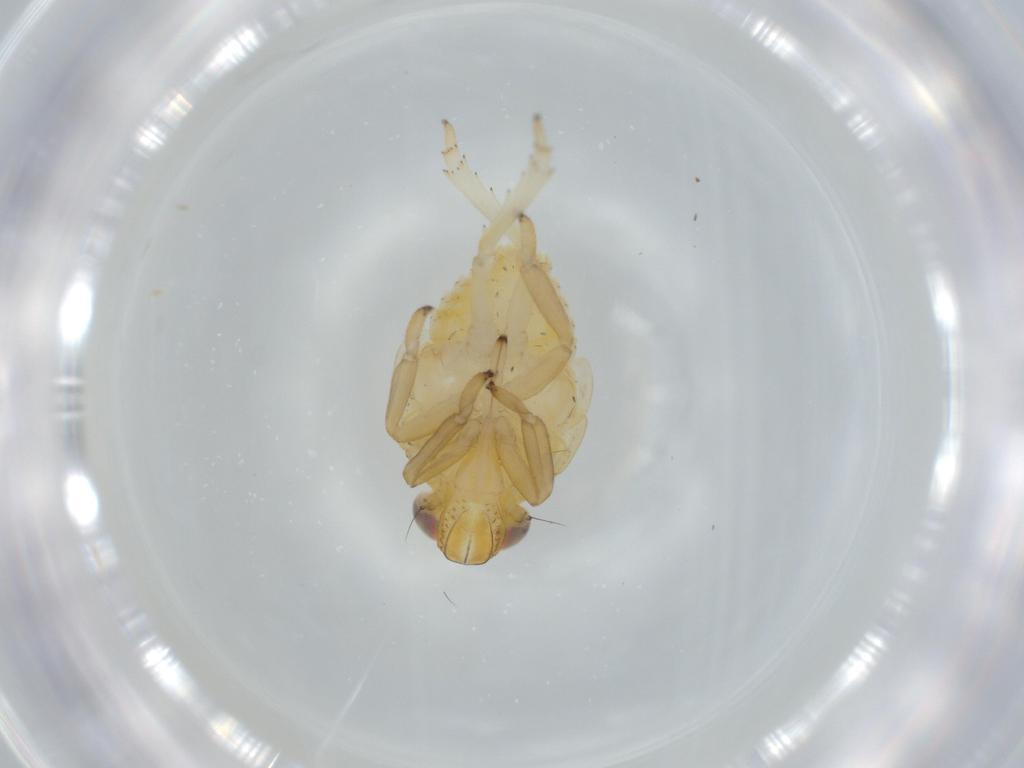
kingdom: Animalia
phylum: Arthropoda
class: Insecta
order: Hemiptera
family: Issidae
